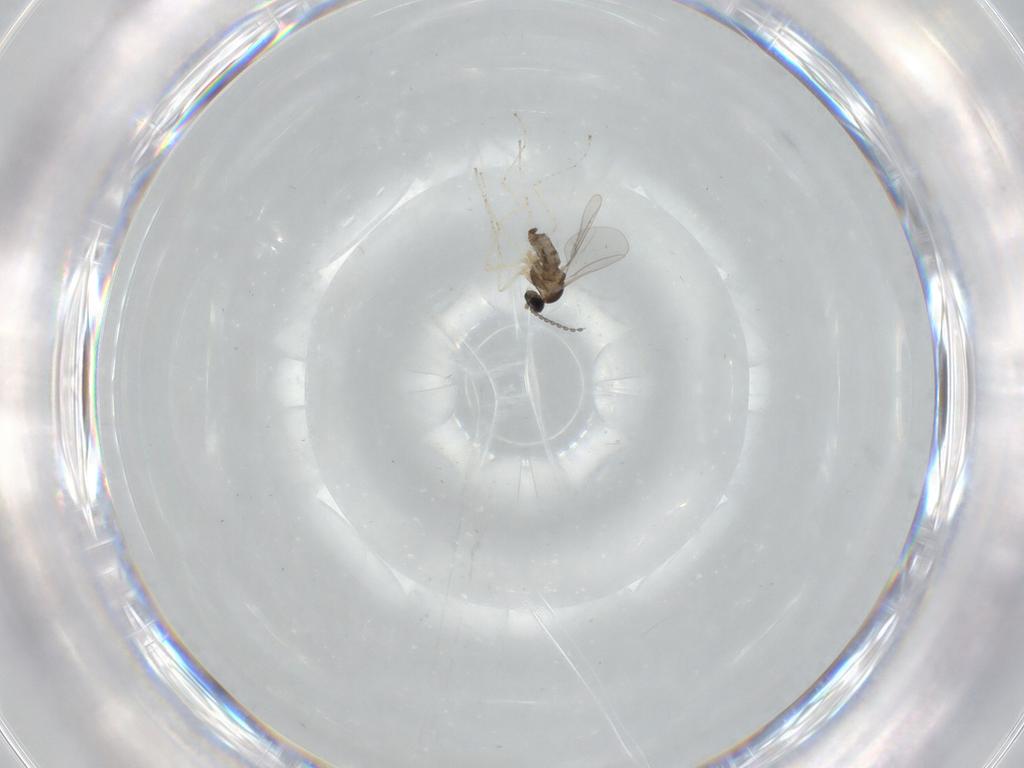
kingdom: Animalia
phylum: Arthropoda
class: Insecta
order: Diptera
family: Cecidomyiidae
